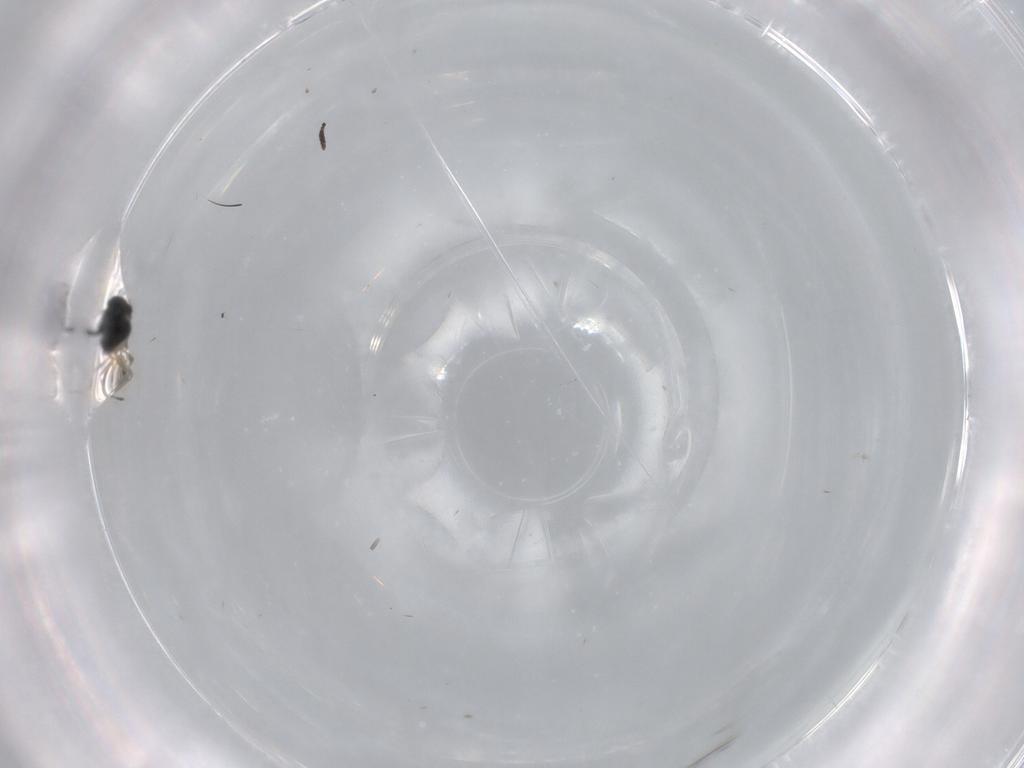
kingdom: Animalia
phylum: Arthropoda
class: Insecta
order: Hymenoptera
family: Scelionidae
